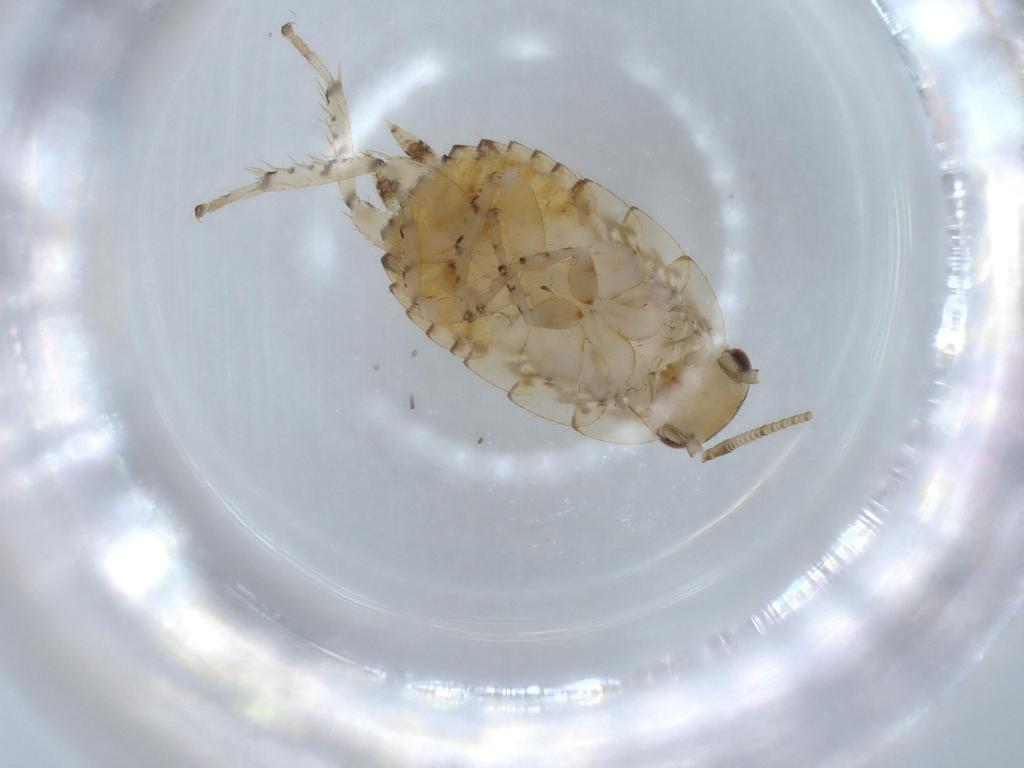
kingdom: Animalia
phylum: Arthropoda
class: Insecta
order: Blattodea
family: Ectobiidae
